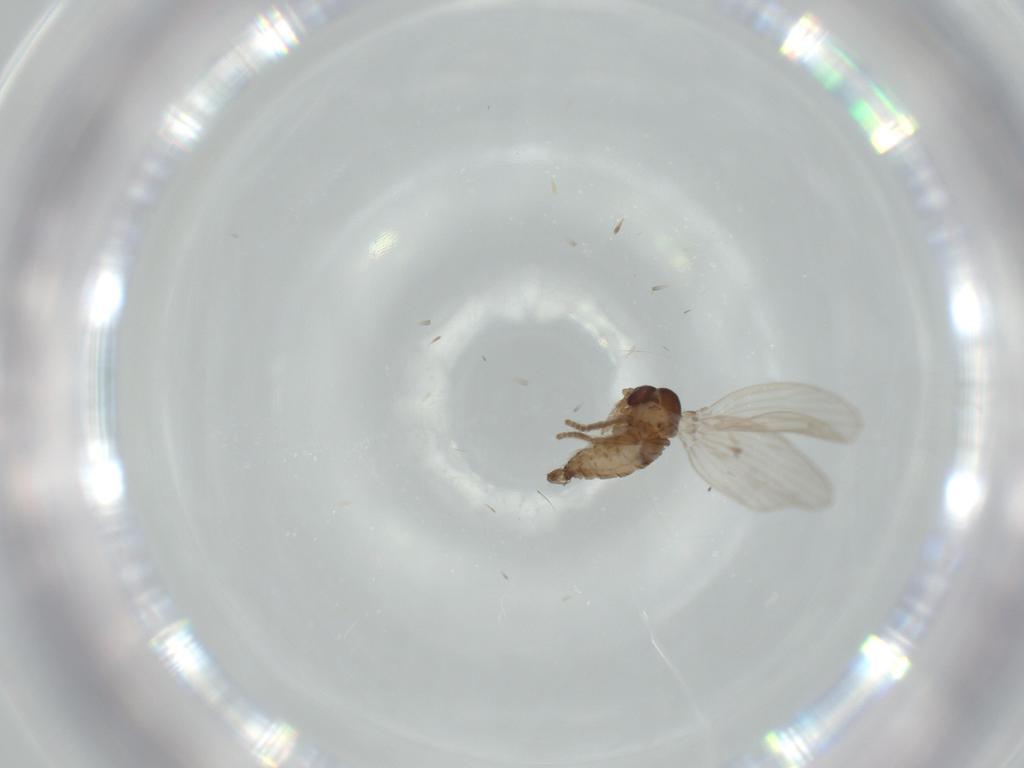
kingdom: Animalia
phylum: Arthropoda
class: Insecta
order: Diptera
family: Psychodidae
